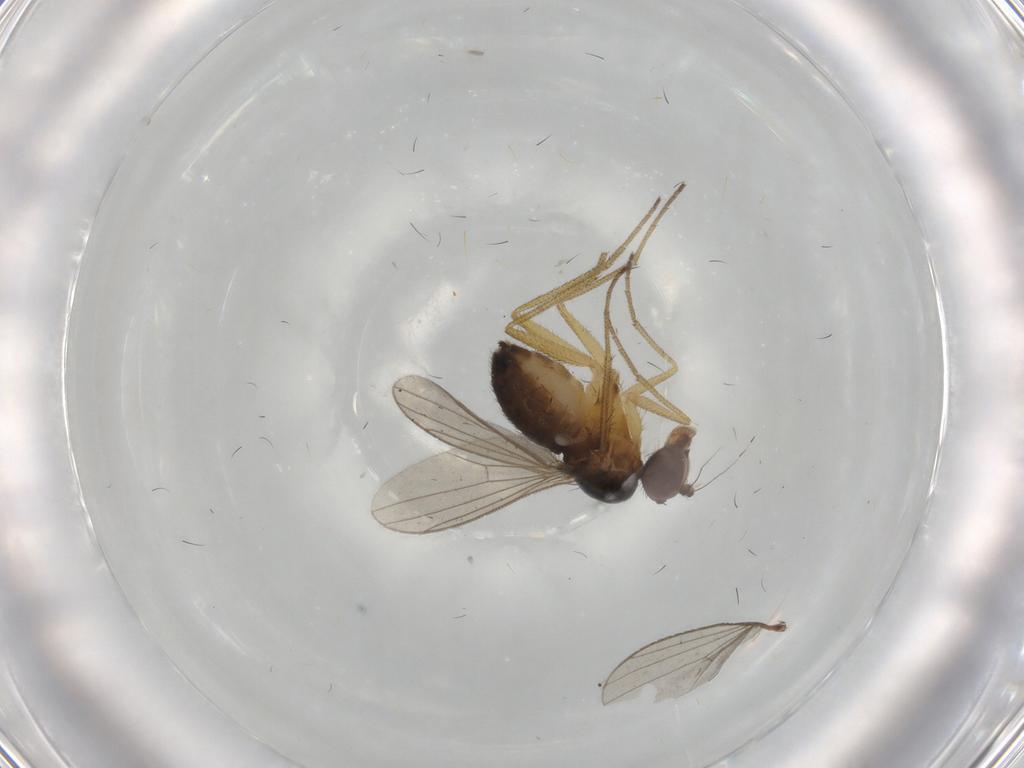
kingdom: Animalia
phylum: Arthropoda
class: Insecta
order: Diptera
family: Dolichopodidae
